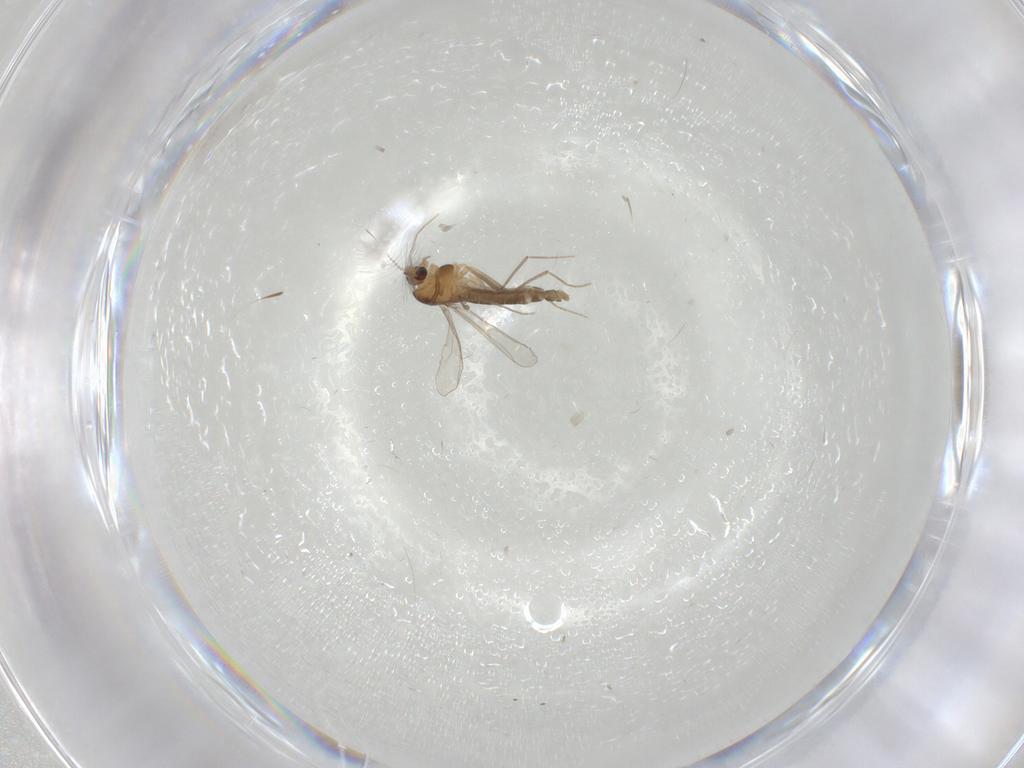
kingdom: Animalia
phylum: Arthropoda
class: Insecta
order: Diptera
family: Chironomidae
